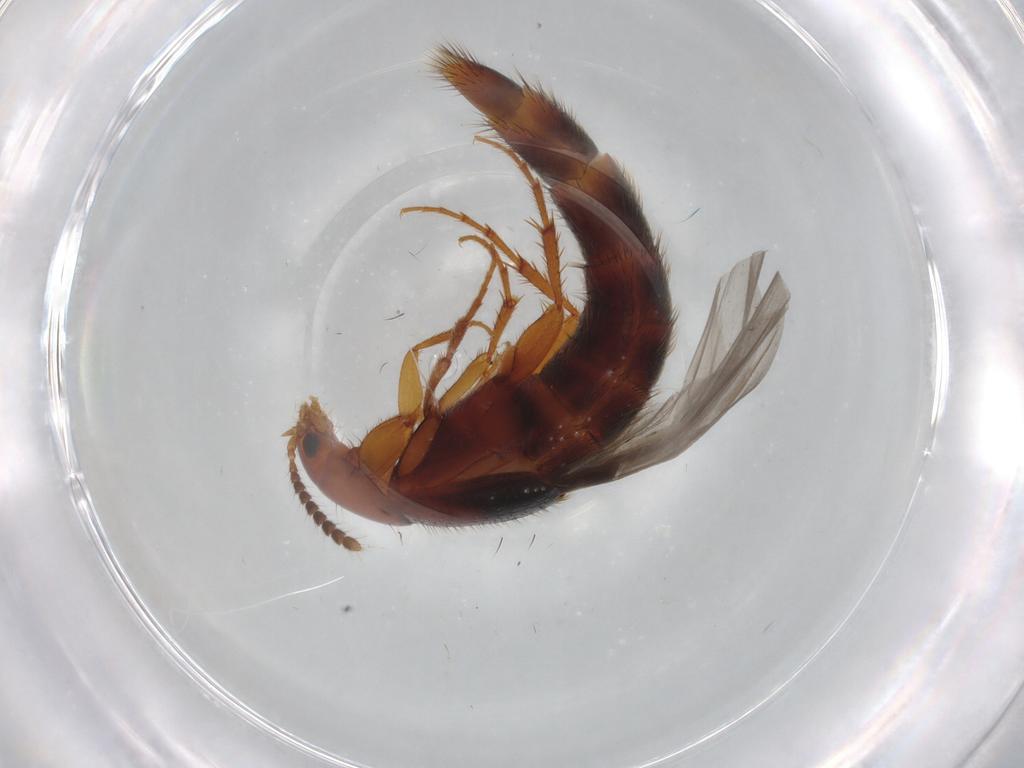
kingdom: Animalia
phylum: Arthropoda
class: Insecta
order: Coleoptera
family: Staphylinidae
